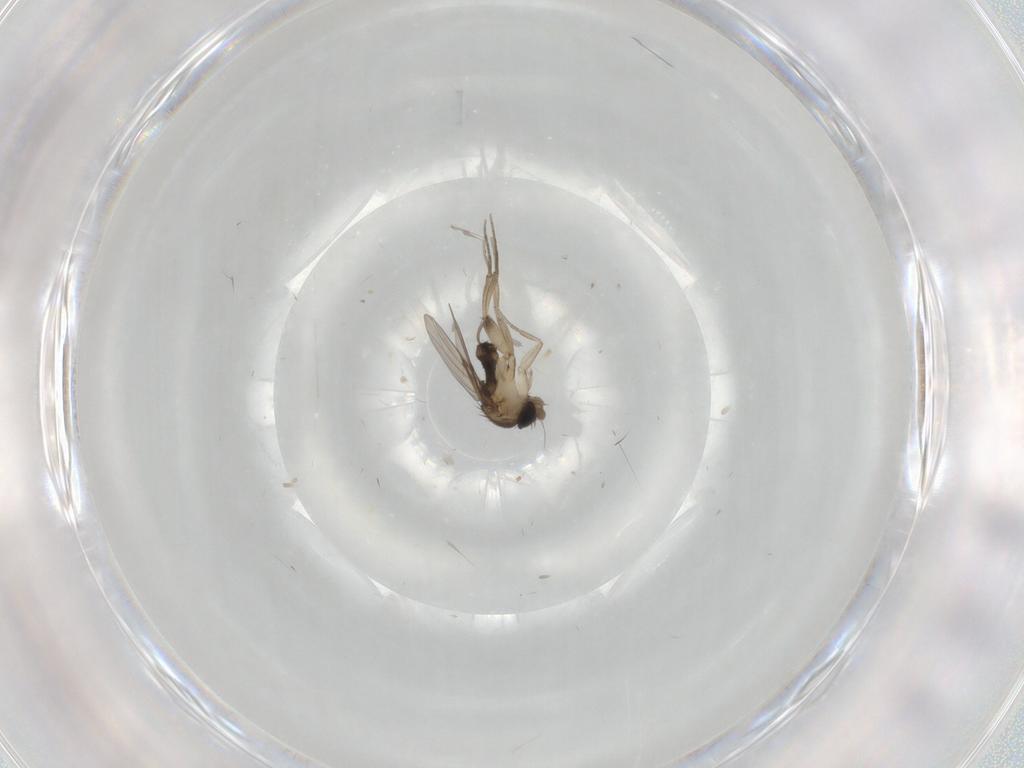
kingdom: Animalia
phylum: Arthropoda
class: Insecta
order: Diptera
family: Phoridae
